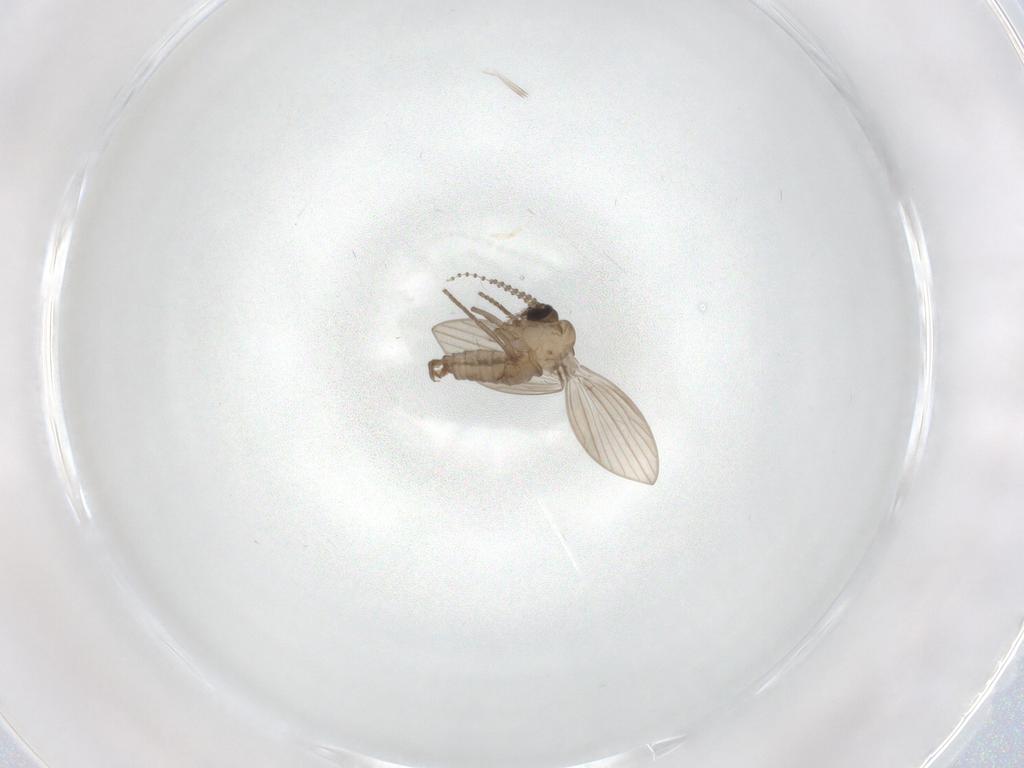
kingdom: Animalia
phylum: Arthropoda
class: Insecta
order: Diptera
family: Psychodidae
